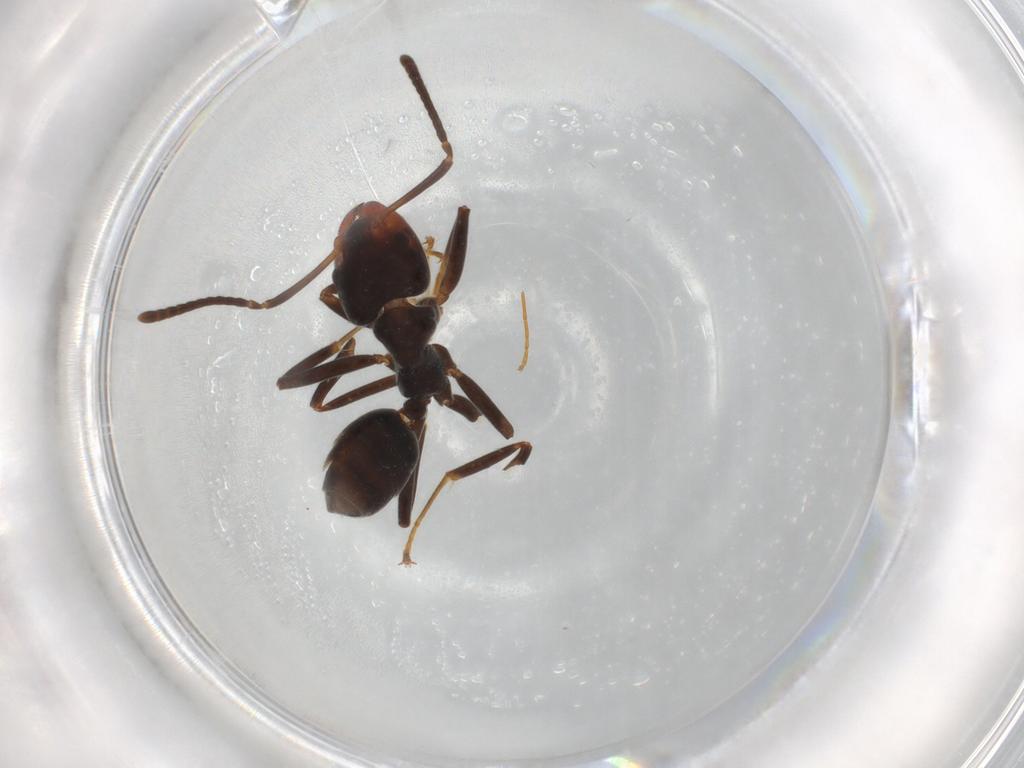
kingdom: Animalia
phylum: Arthropoda
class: Insecta
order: Hymenoptera
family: Formicidae
